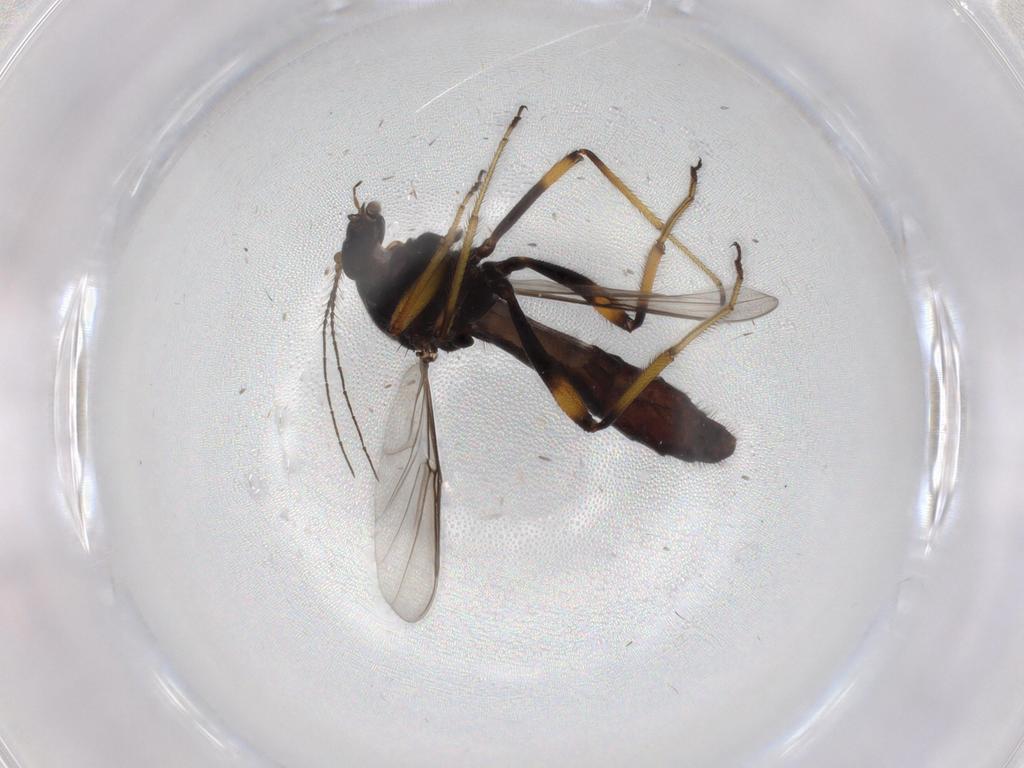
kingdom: Animalia
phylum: Arthropoda
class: Insecta
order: Diptera
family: Ceratopogonidae
